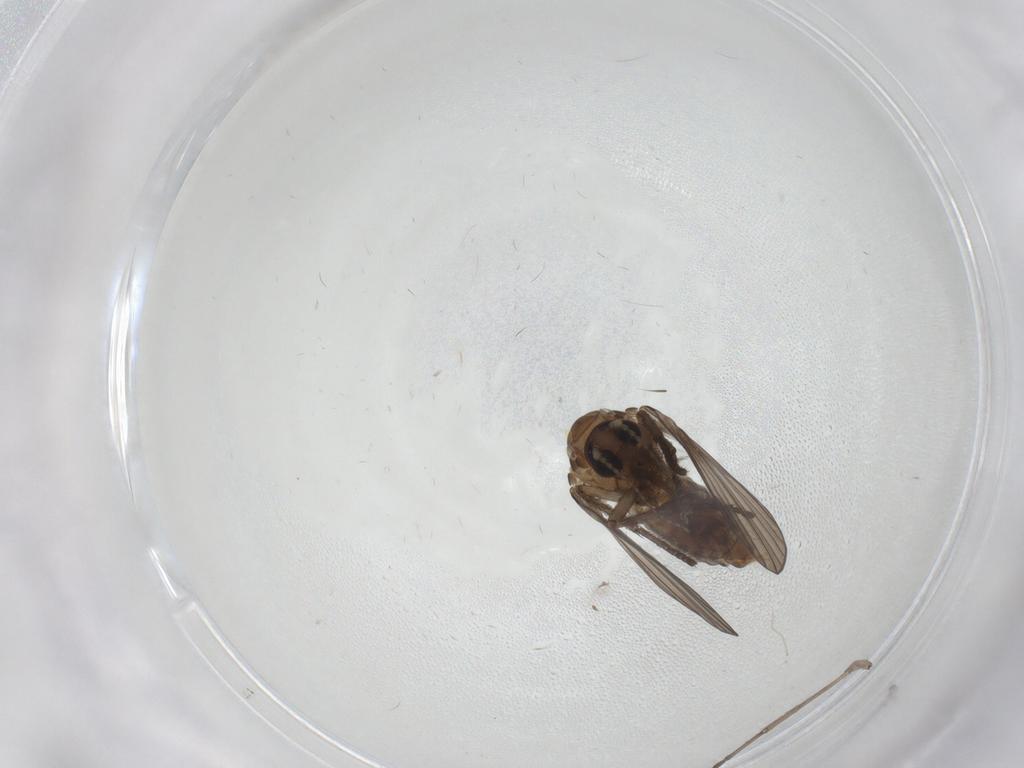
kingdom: Animalia
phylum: Arthropoda
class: Insecta
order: Diptera
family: Psychodidae
